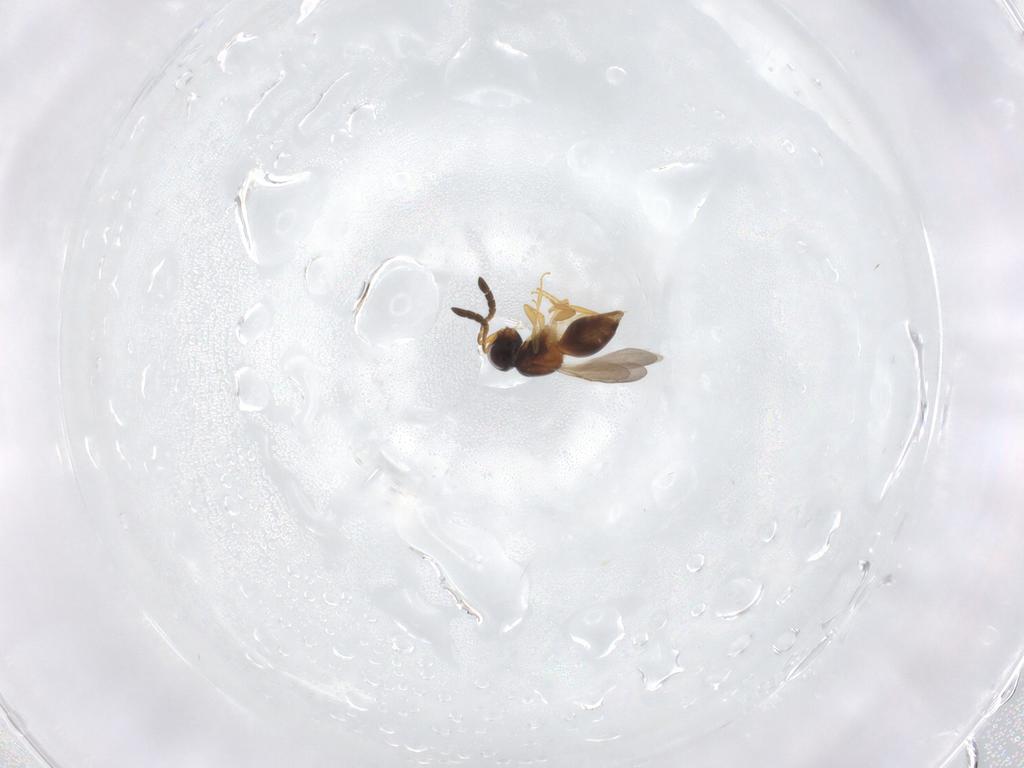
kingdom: Animalia
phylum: Arthropoda
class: Insecta
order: Hymenoptera
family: Ceraphronidae
